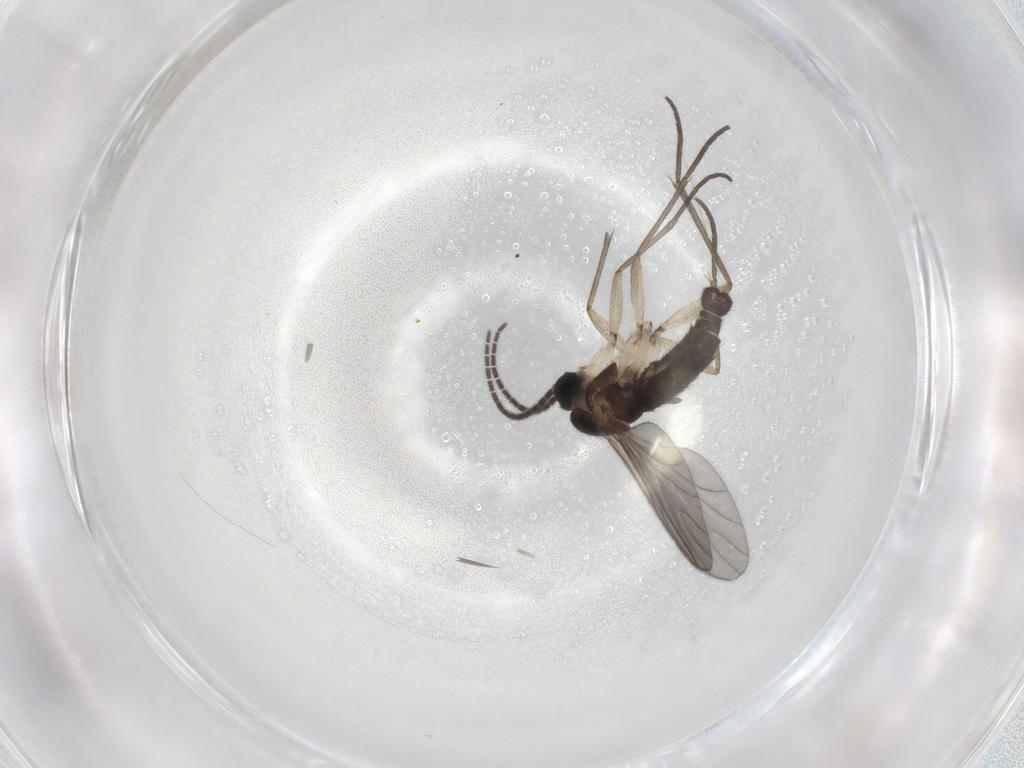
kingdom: Animalia
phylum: Arthropoda
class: Insecta
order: Diptera
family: Sciaridae
